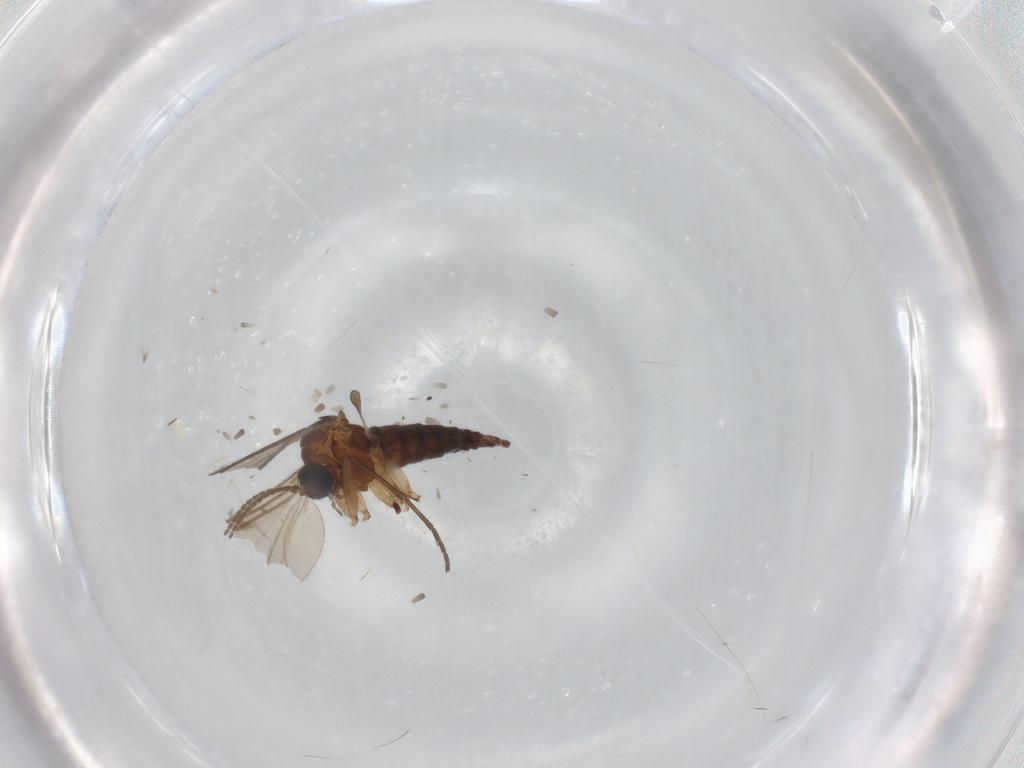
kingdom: Animalia
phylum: Arthropoda
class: Insecta
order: Diptera
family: Sciaridae
